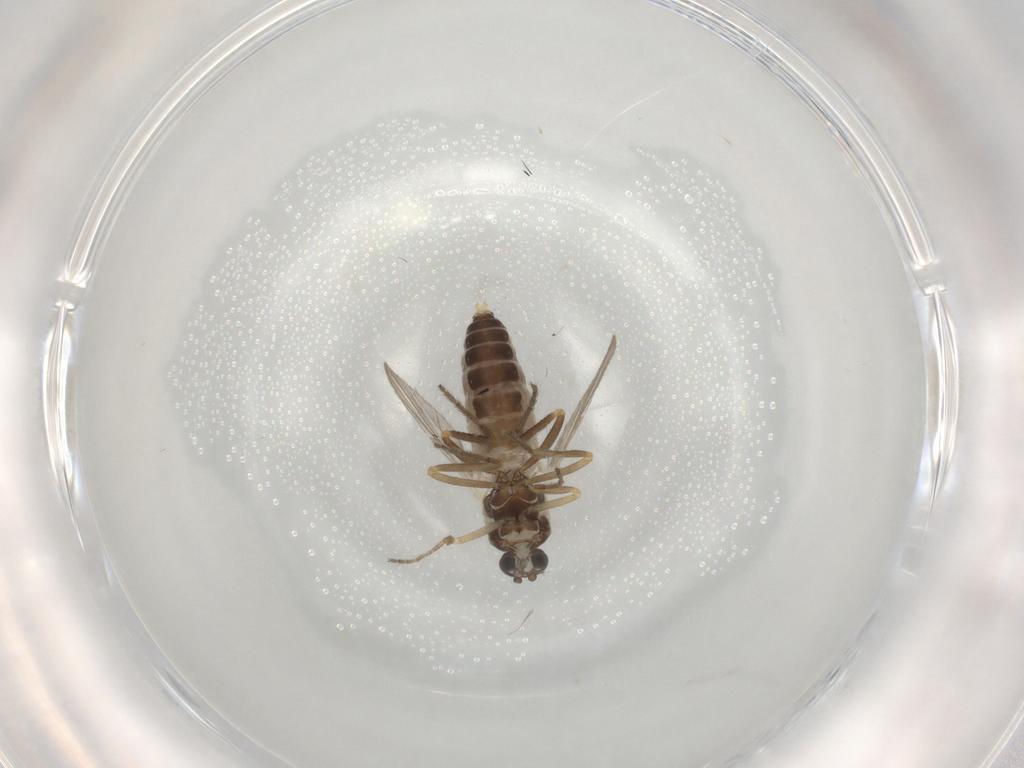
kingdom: Animalia
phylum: Arthropoda
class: Insecta
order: Diptera
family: Ceratopogonidae
